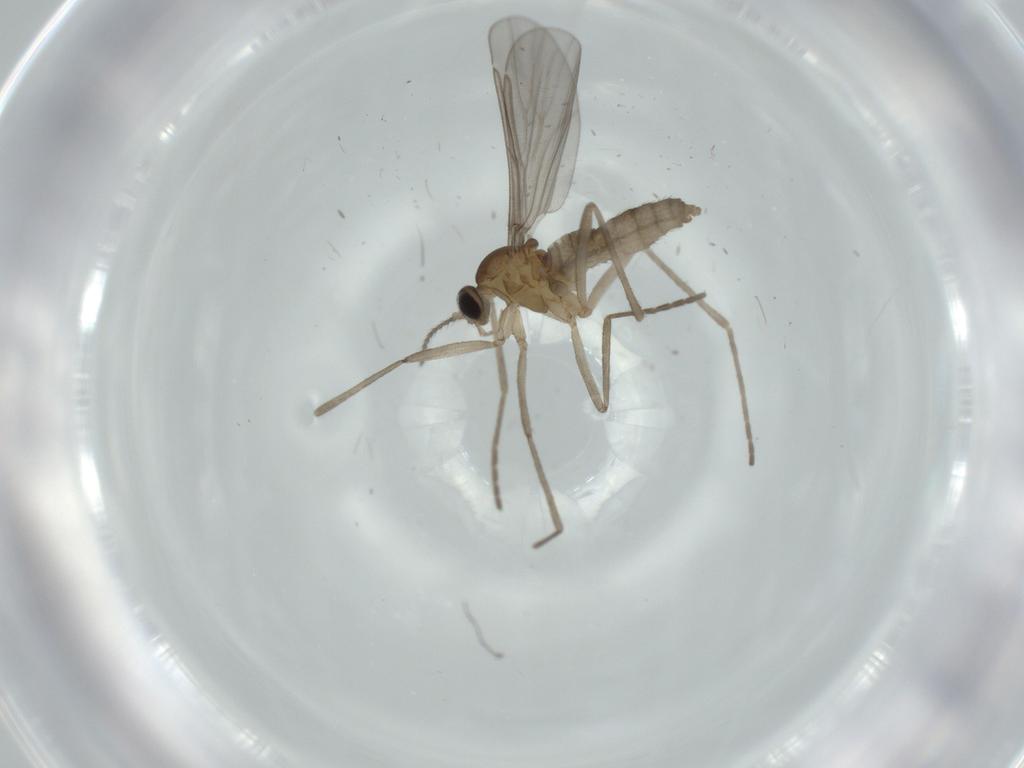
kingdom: Animalia
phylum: Arthropoda
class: Insecta
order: Diptera
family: Cecidomyiidae
